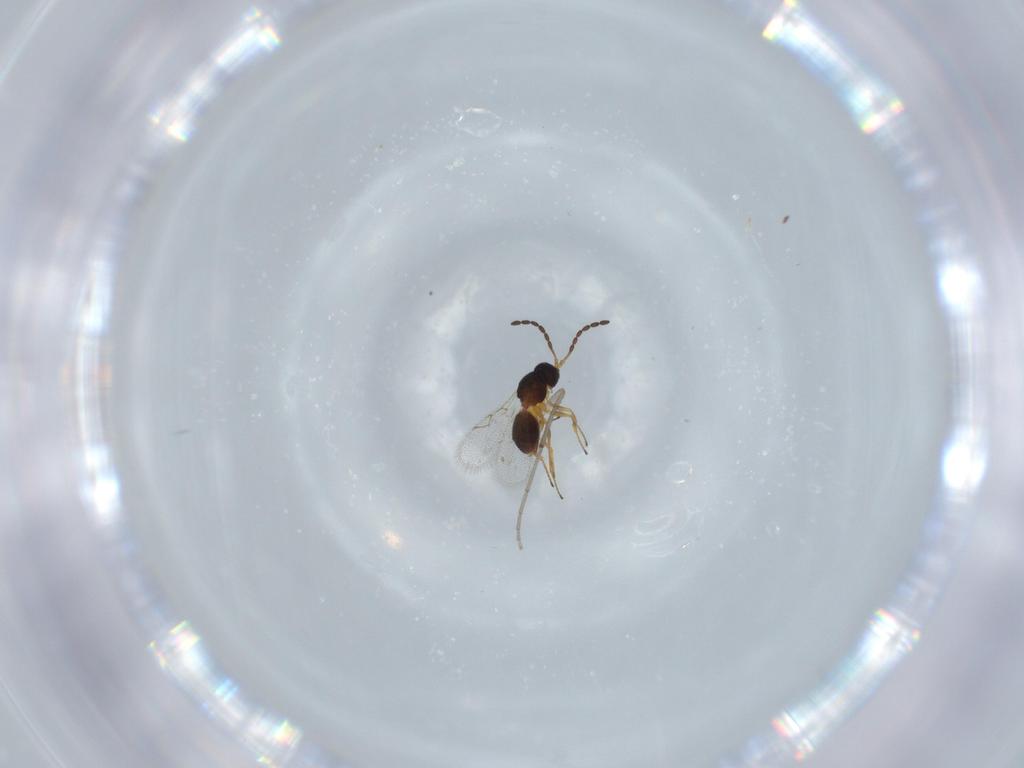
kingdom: Animalia
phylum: Arthropoda
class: Insecta
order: Hymenoptera
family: Figitidae
